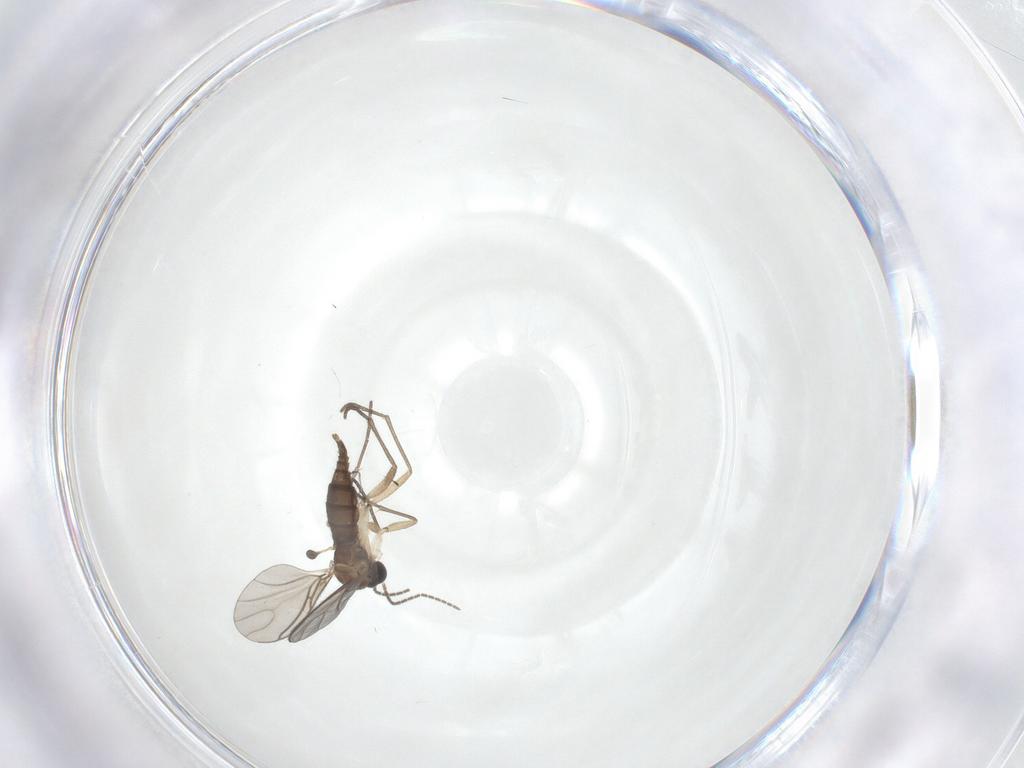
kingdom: Animalia
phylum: Arthropoda
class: Insecta
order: Diptera
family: Sciaridae
